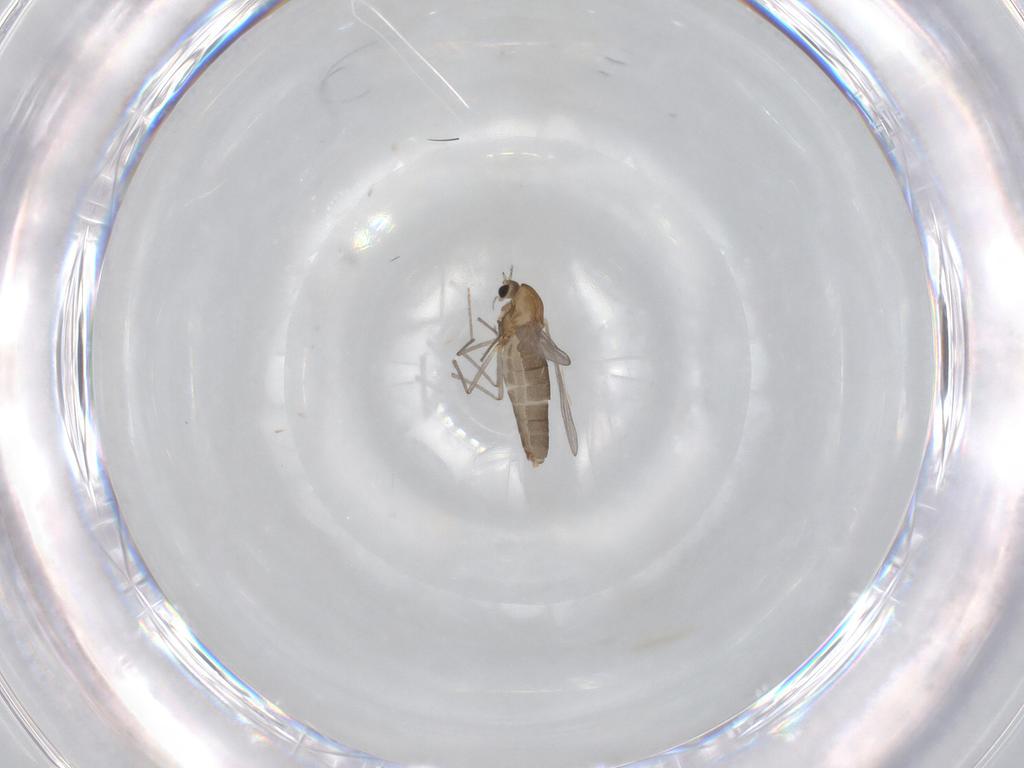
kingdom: Animalia
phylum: Arthropoda
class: Insecta
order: Diptera
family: Chironomidae
